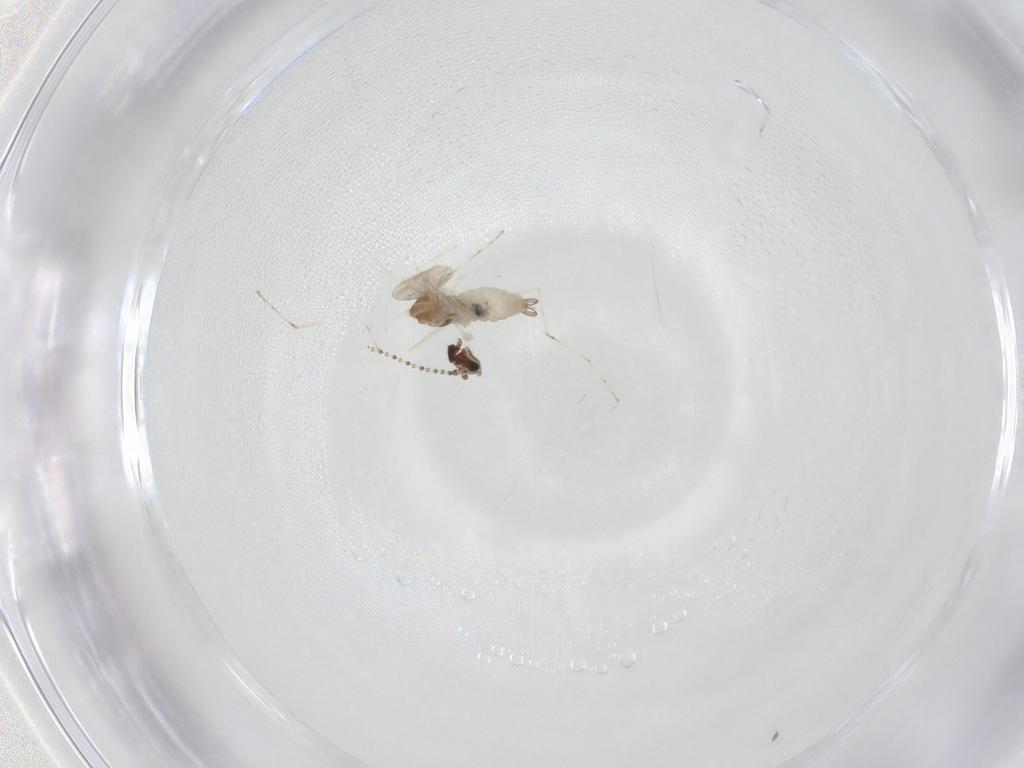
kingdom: Animalia
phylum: Arthropoda
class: Insecta
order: Diptera
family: Cecidomyiidae
